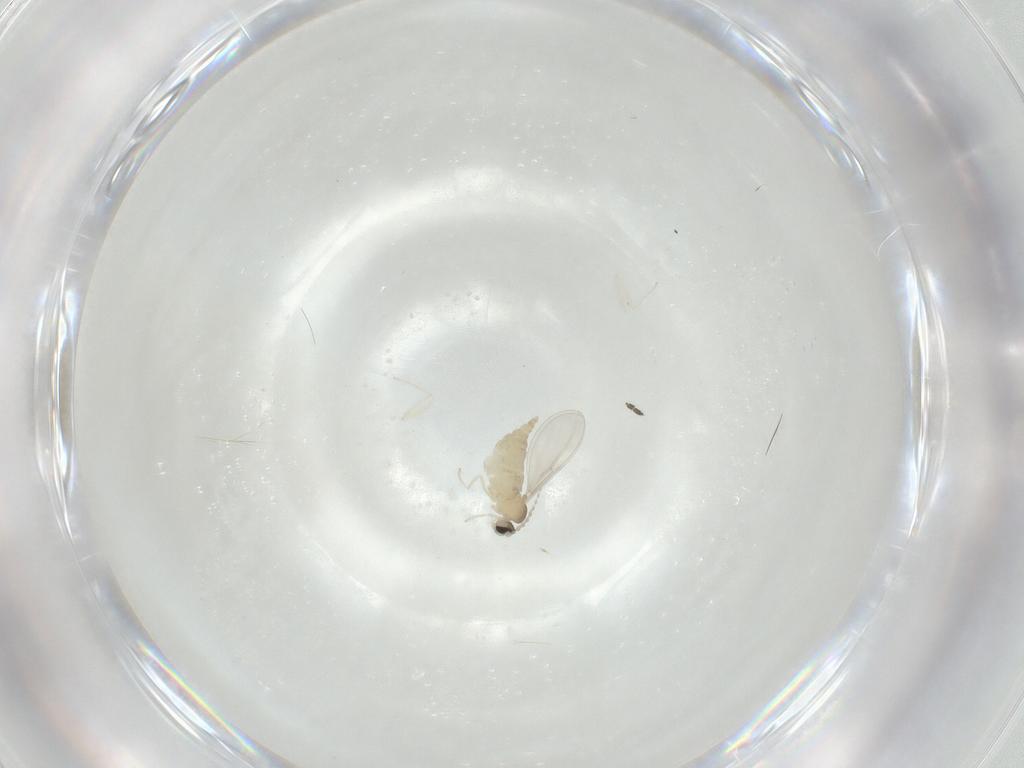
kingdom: Animalia
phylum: Arthropoda
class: Insecta
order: Diptera
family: Cecidomyiidae
